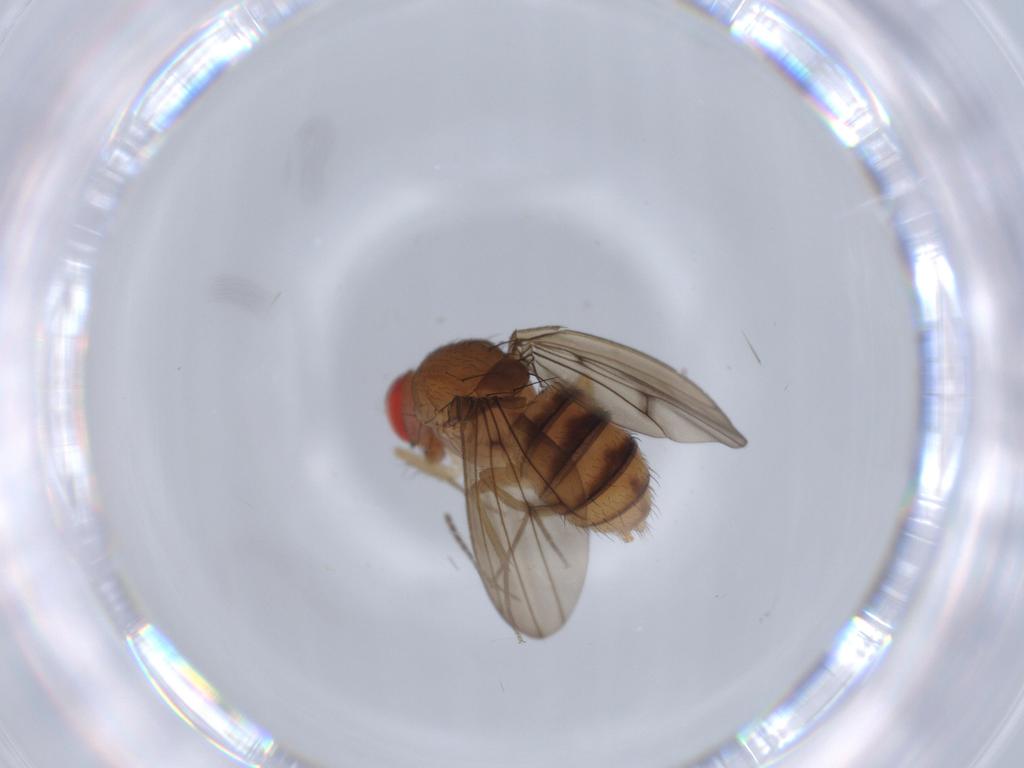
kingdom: Animalia
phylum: Arthropoda
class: Insecta
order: Diptera
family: Drosophilidae
